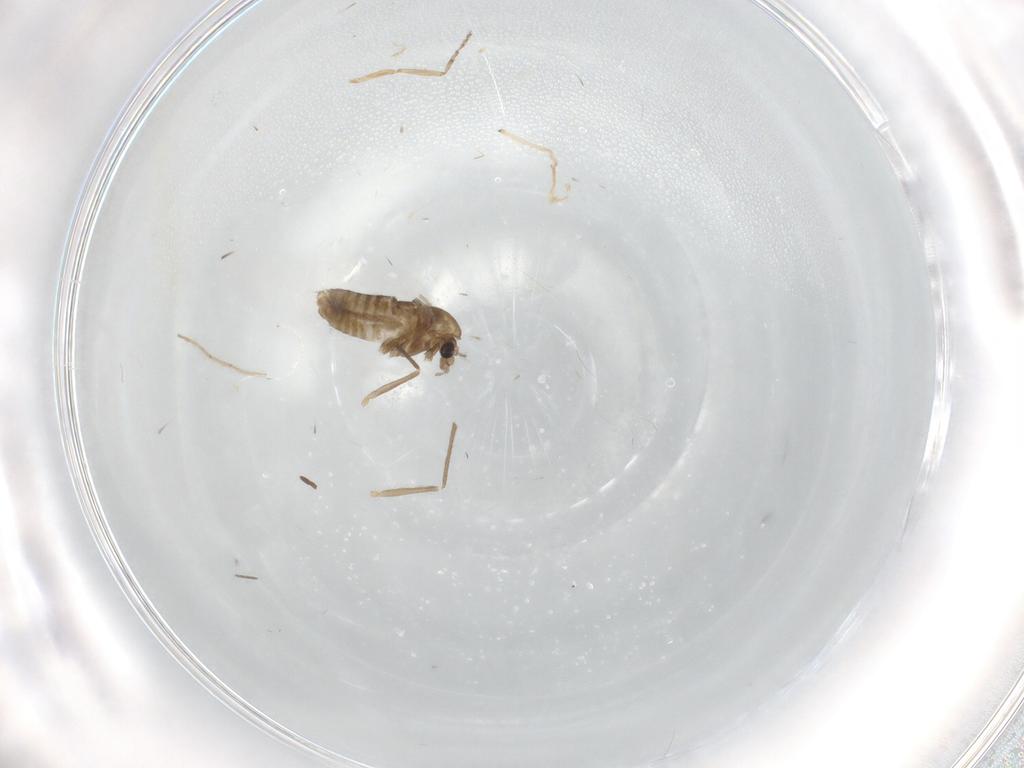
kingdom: Animalia
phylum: Arthropoda
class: Insecta
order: Diptera
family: Chironomidae
